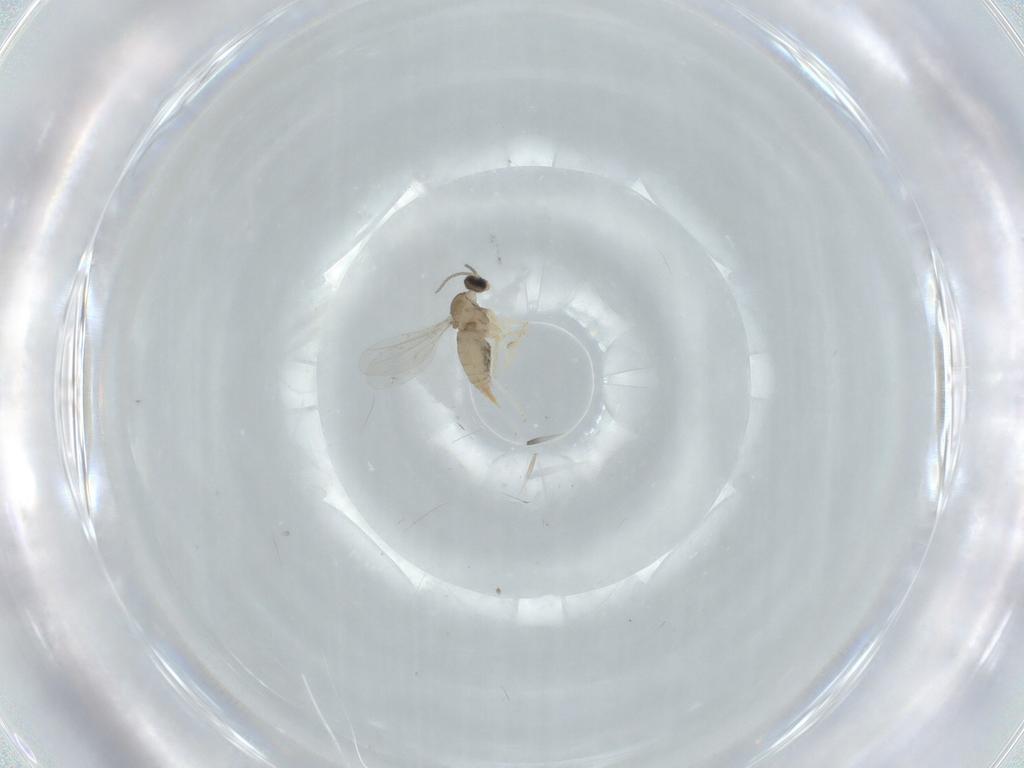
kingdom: Animalia
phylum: Arthropoda
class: Insecta
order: Diptera
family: Cecidomyiidae
